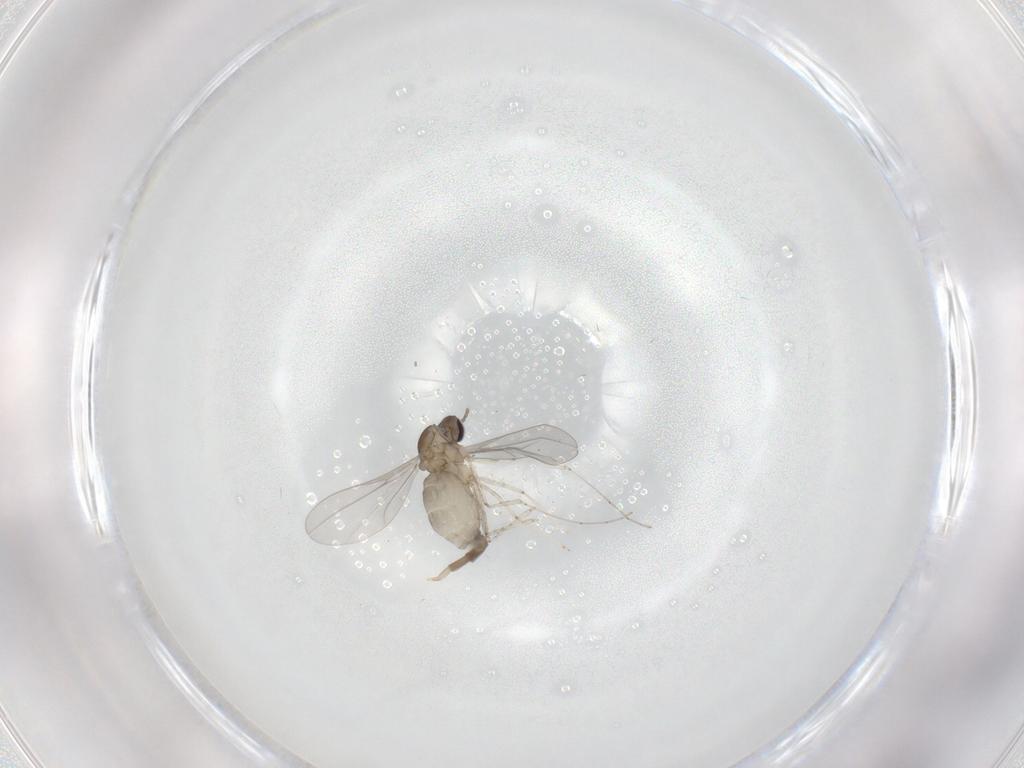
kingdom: Animalia
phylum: Arthropoda
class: Insecta
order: Diptera
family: Cecidomyiidae
